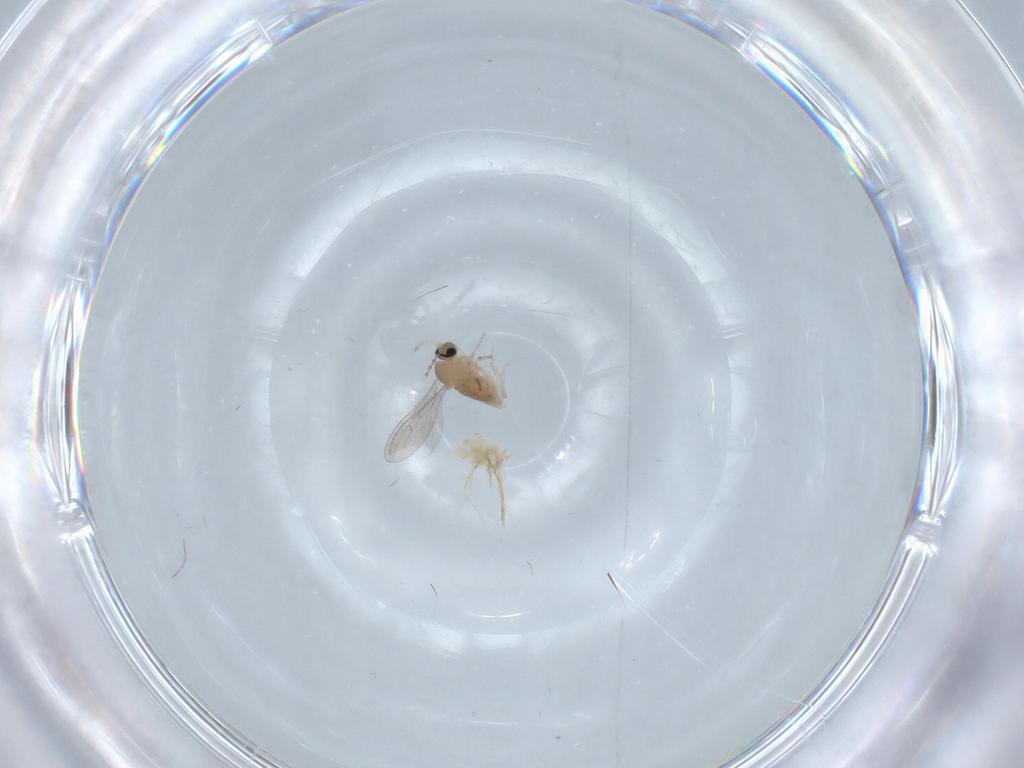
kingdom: Animalia
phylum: Arthropoda
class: Insecta
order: Diptera
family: Cecidomyiidae
